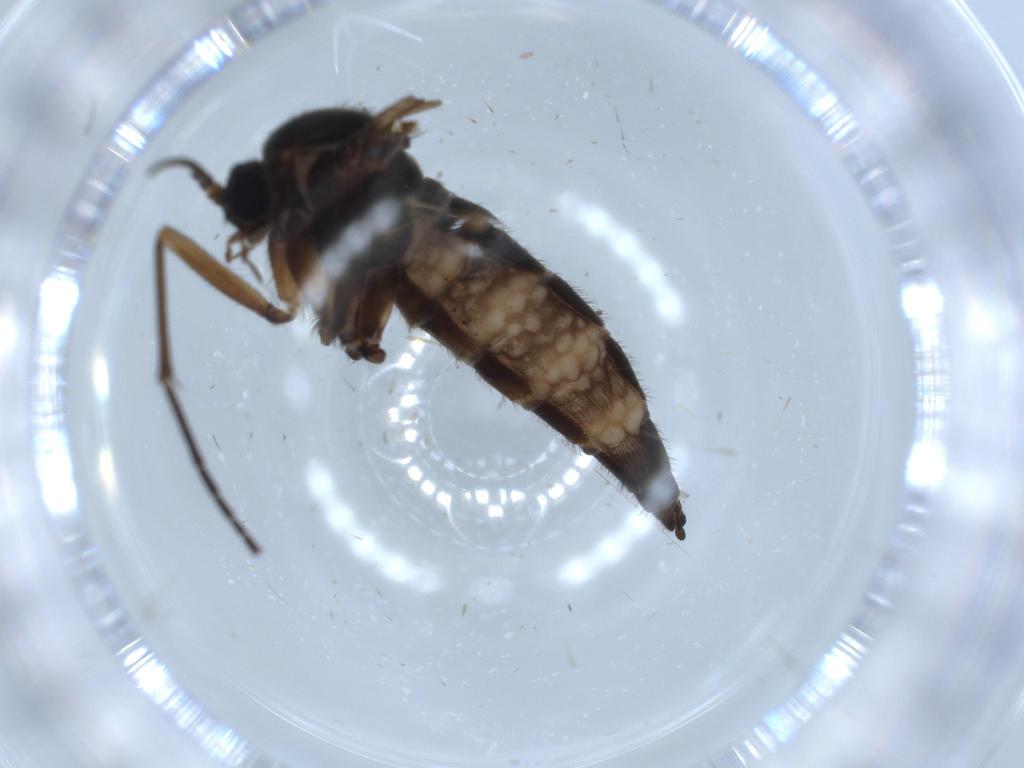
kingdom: Animalia
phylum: Arthropoda
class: Insecta
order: Diptera
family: Sciaridae
